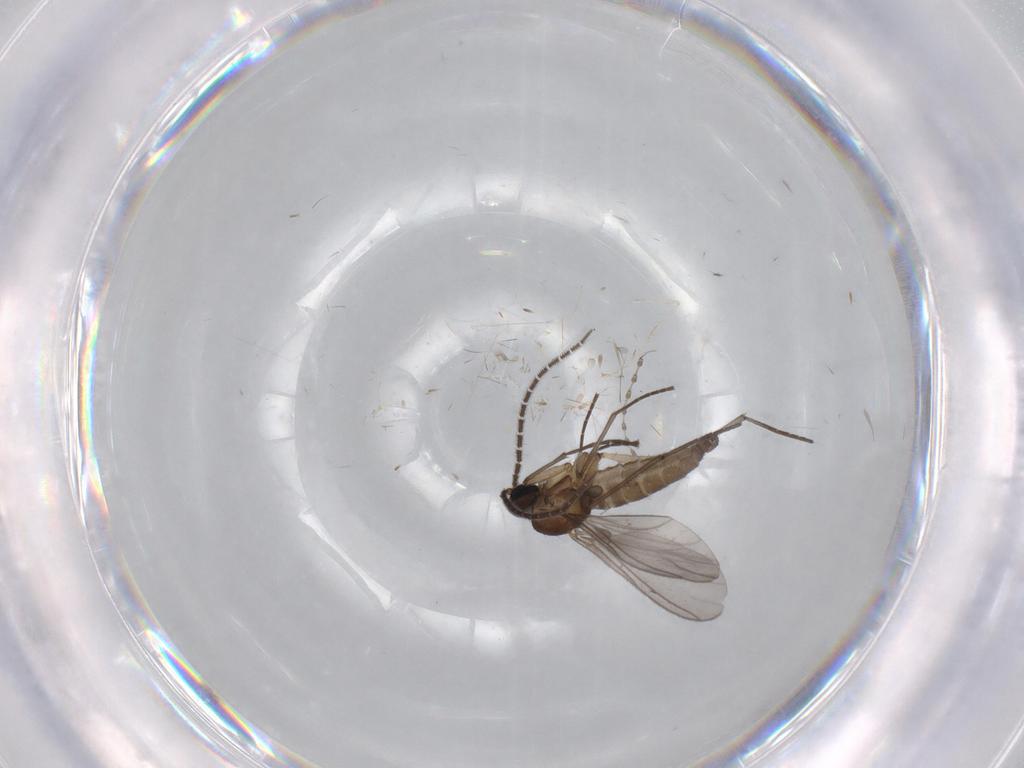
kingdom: Animalia
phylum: Arthropoda
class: Insecta
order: Diptera
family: Sciaridae
